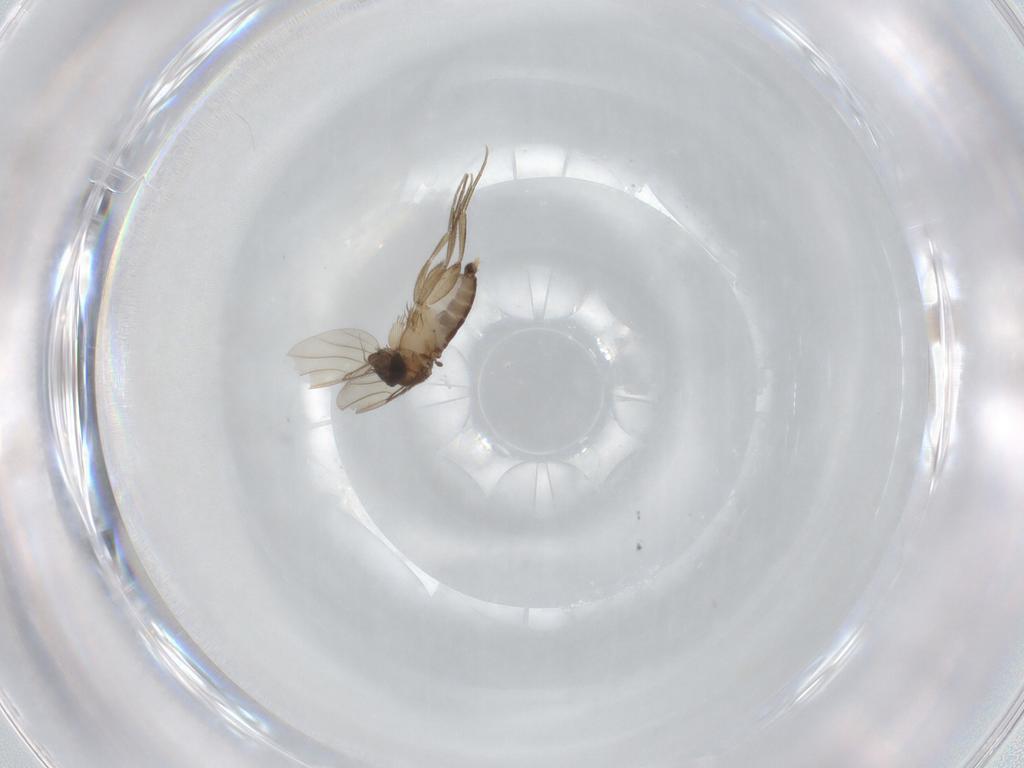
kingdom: Animalia
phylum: Arthropoda
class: Insecta
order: Diptera
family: Phoridae
